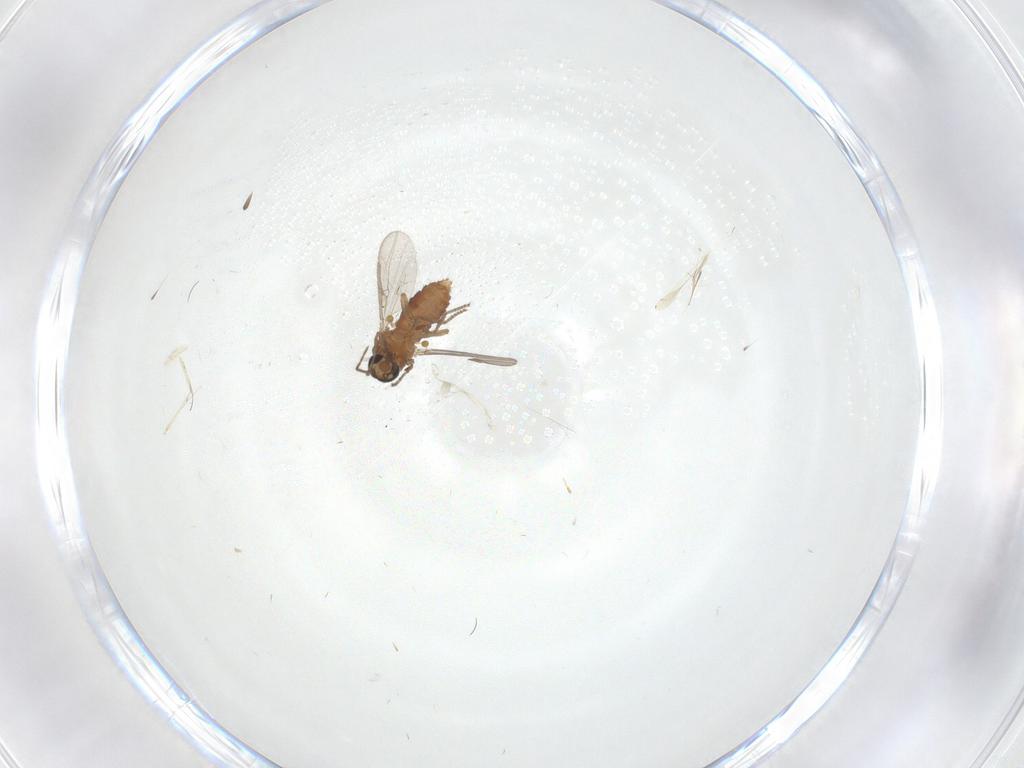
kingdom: Animalia
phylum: Arthropoda
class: Insecta
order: Diptera
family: Ceratopogonidae
